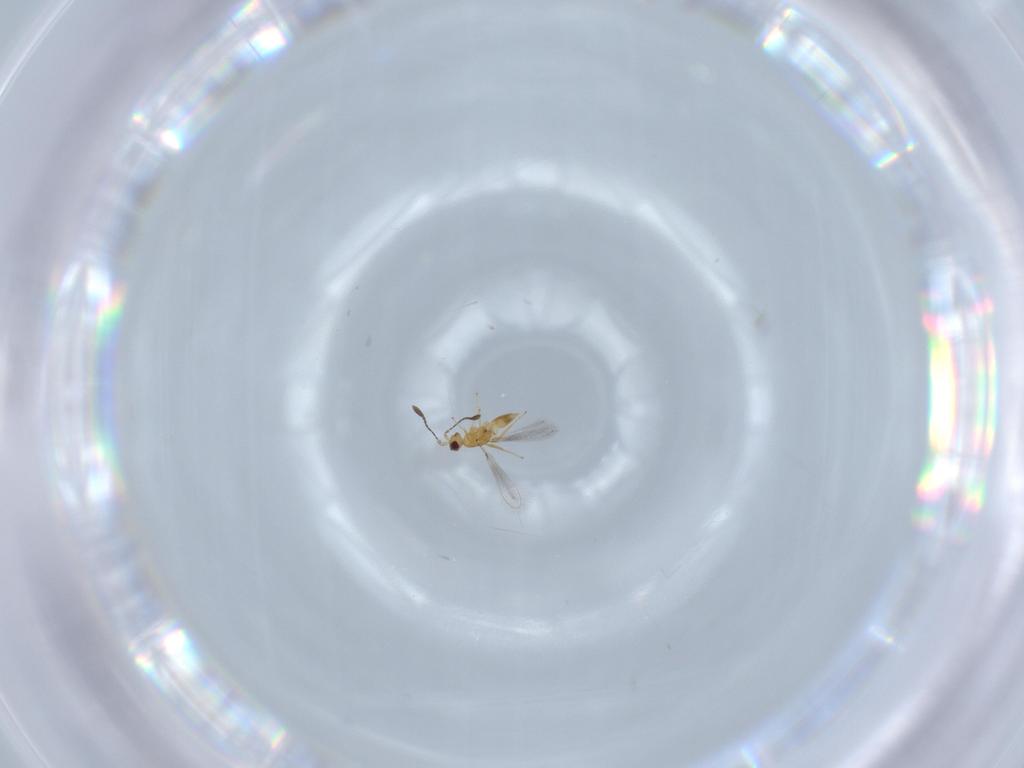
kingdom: Animalia
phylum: Arthropoda
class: Insecta
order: Hymenoptera
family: Mymaridae
